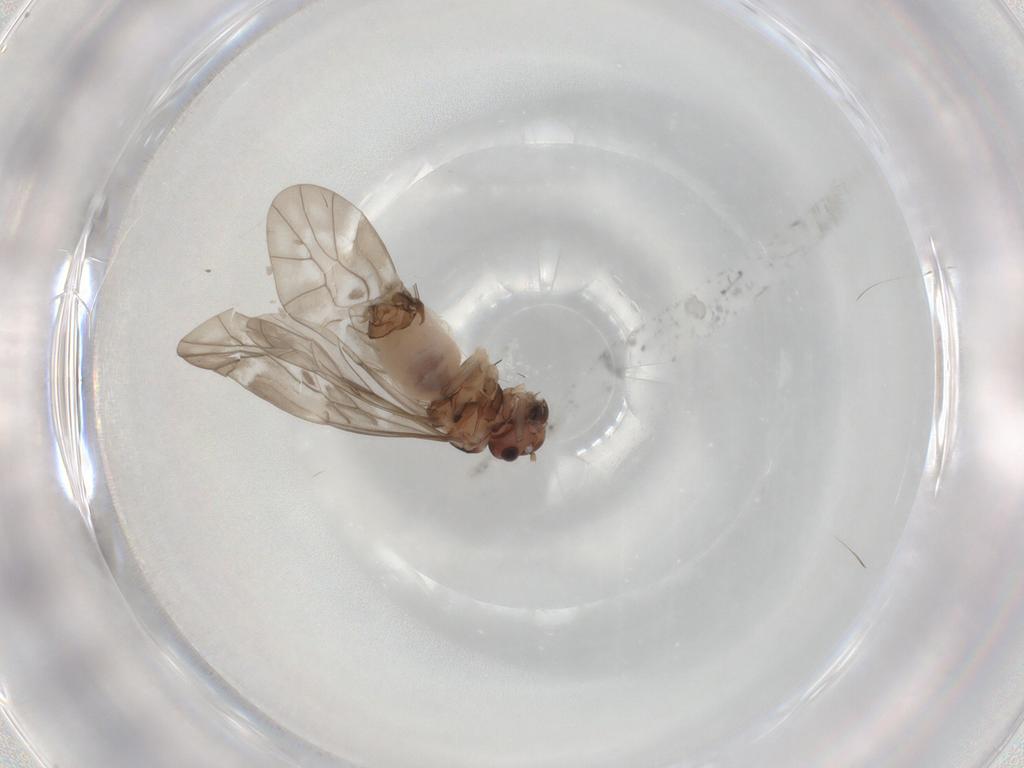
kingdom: Animalia
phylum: Arthropoda
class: Insecta
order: Psocodea
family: Peripsocidae
